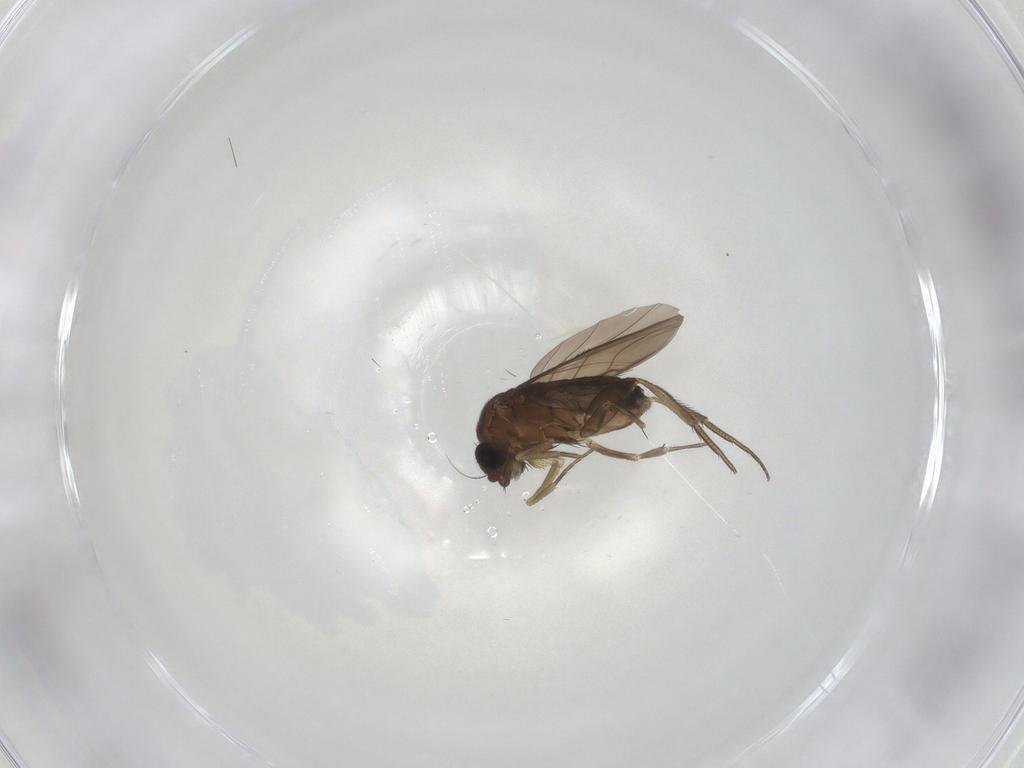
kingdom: Animalia
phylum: Arthropoda
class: Insecta
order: Diptera
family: Phoridae
